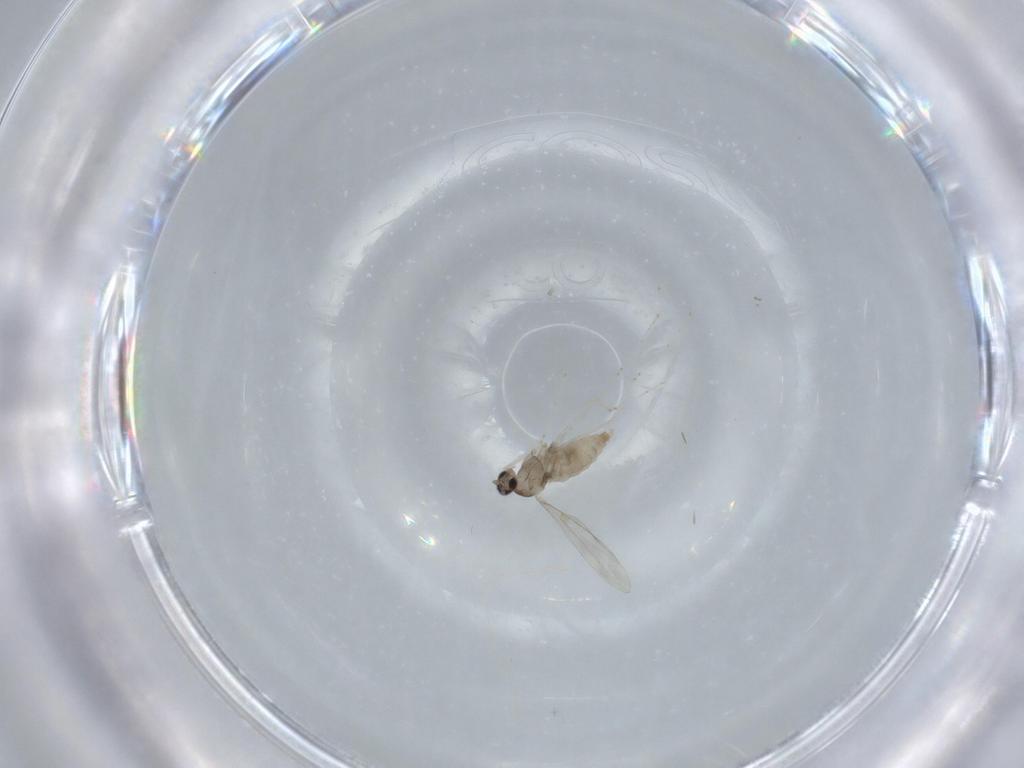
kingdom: Animalia
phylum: Arthropoda
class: Insecta
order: Diptera
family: Cecidomyiidae
